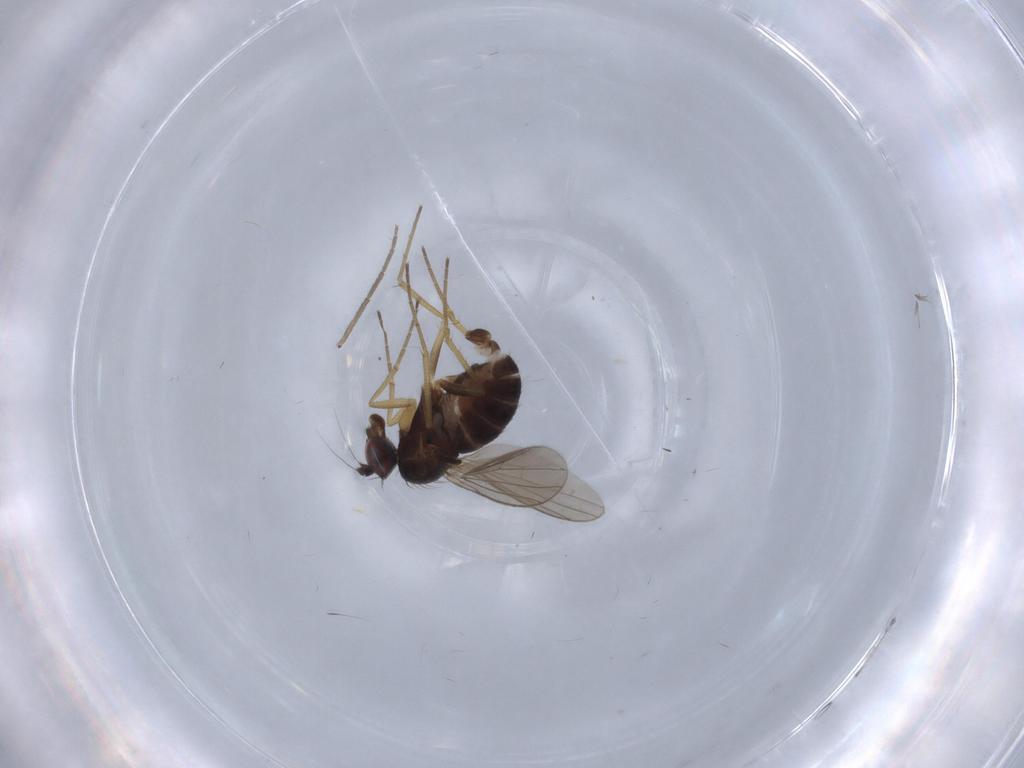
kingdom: Animalia
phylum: Arthropoda
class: Insecta
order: Diptera
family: Dolichopodidae
